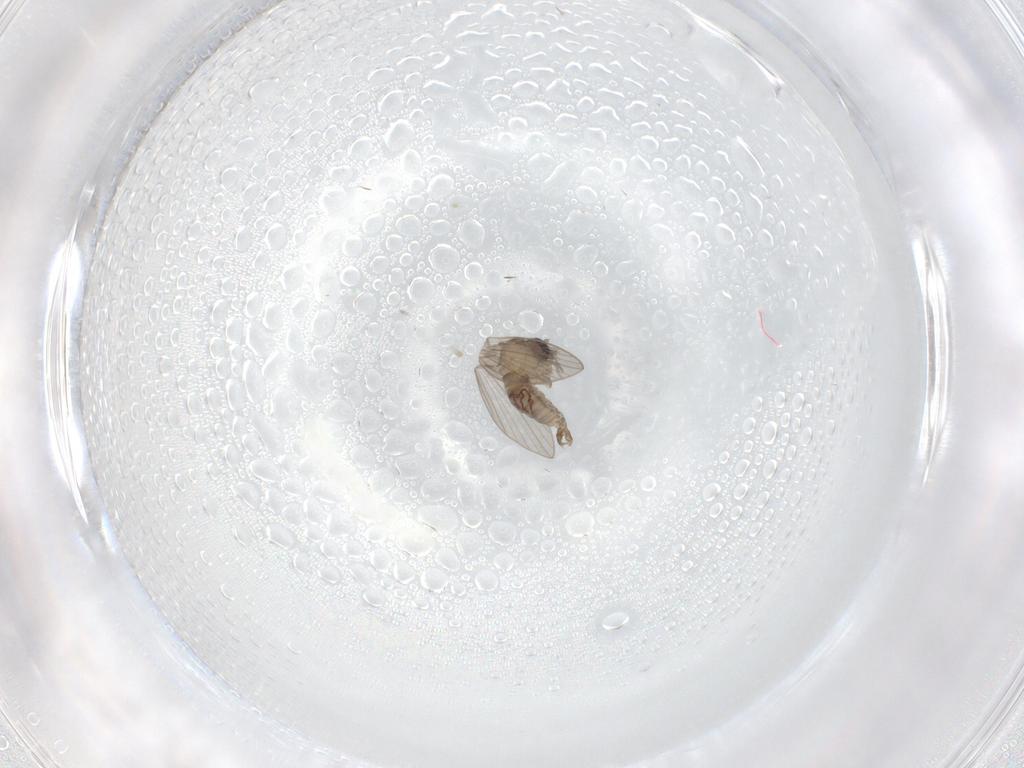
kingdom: Animalia
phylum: Arthropoda
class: Insecta
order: Diptera
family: Psychodidae
